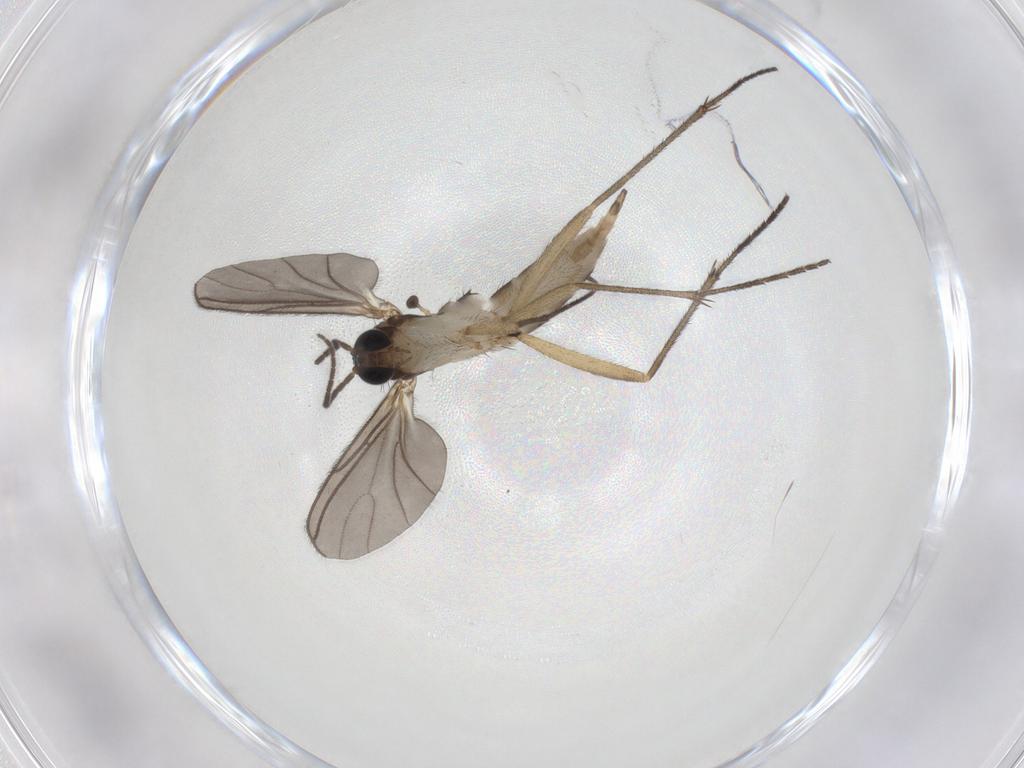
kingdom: Animalia
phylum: Arthropoda
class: Insecta
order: Diptera
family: Sciaridae
